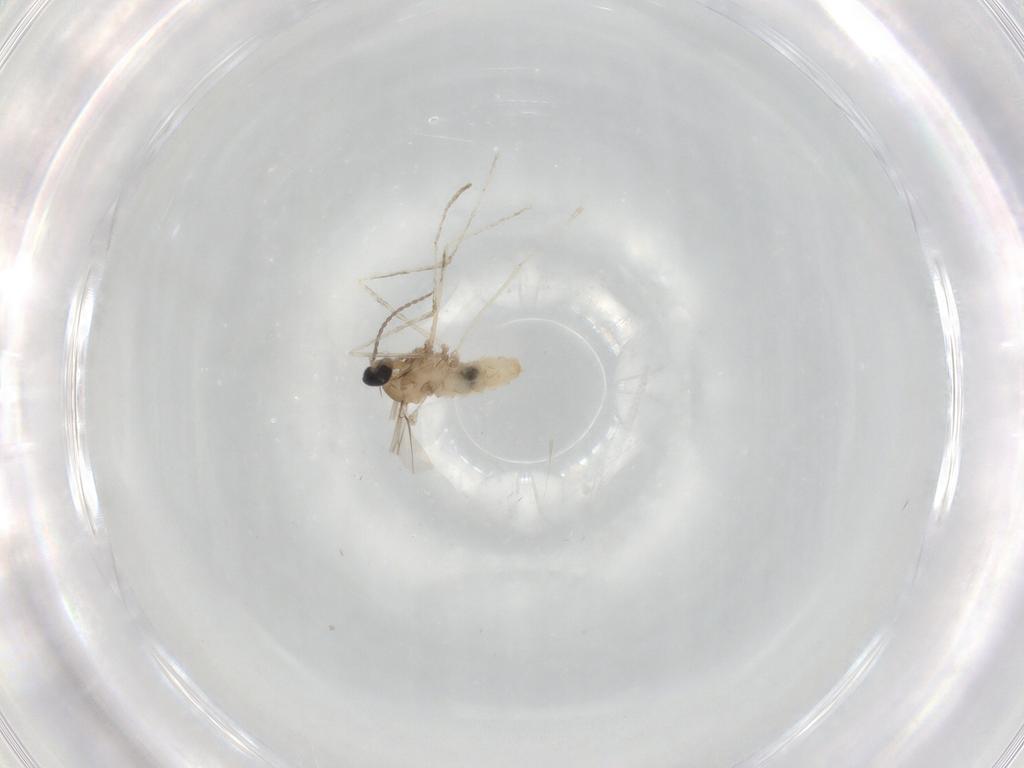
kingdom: Animalia
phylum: Arthropoda
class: Insecta
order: Diptera
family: Cecidomyiidae
